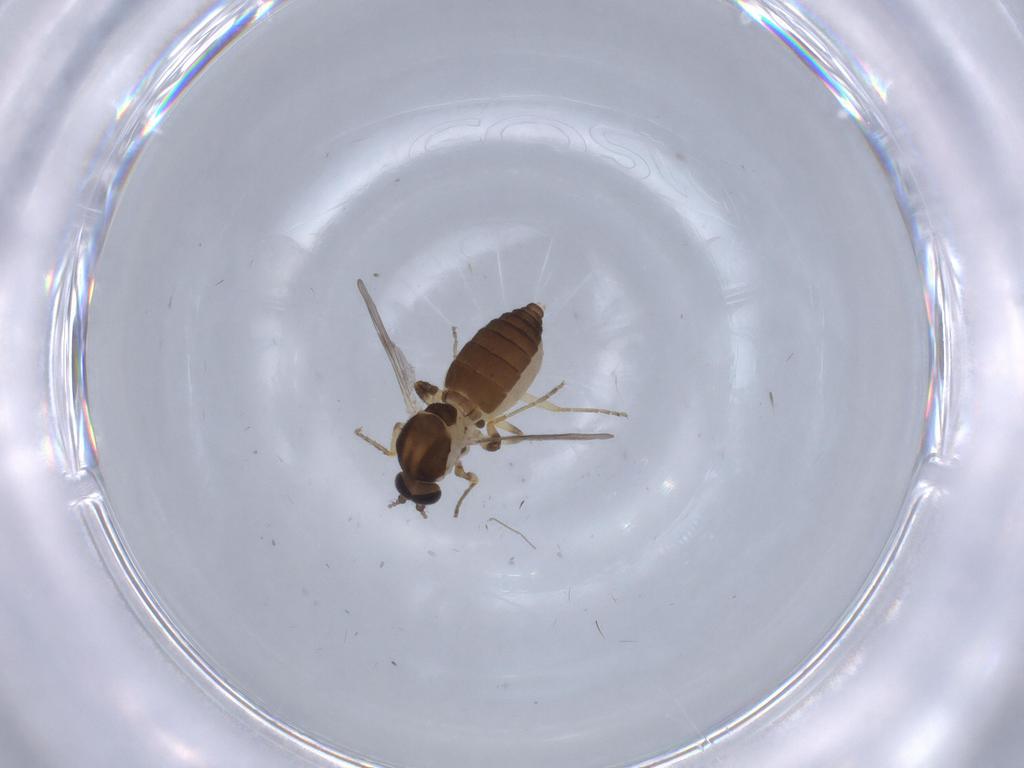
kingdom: Animalia
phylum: Arthropoda
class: Insecta
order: Diptera
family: Ceratopogonidae
